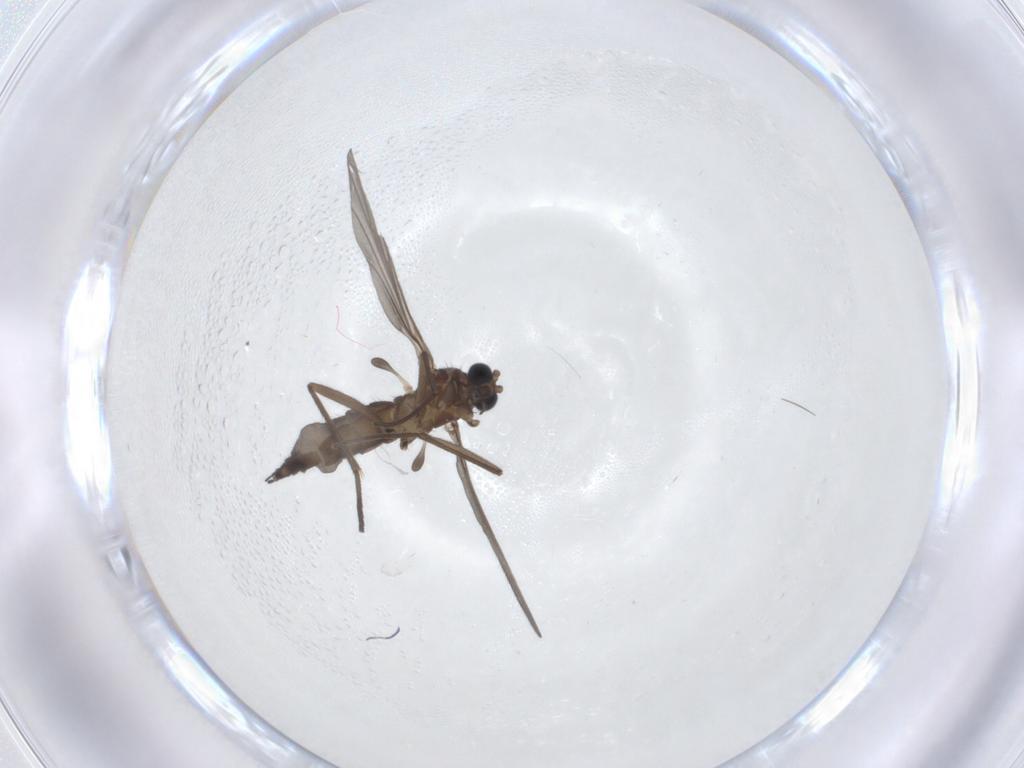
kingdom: Animalia
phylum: Arthropoda
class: Insecta
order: Diptera
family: Sciaridae
